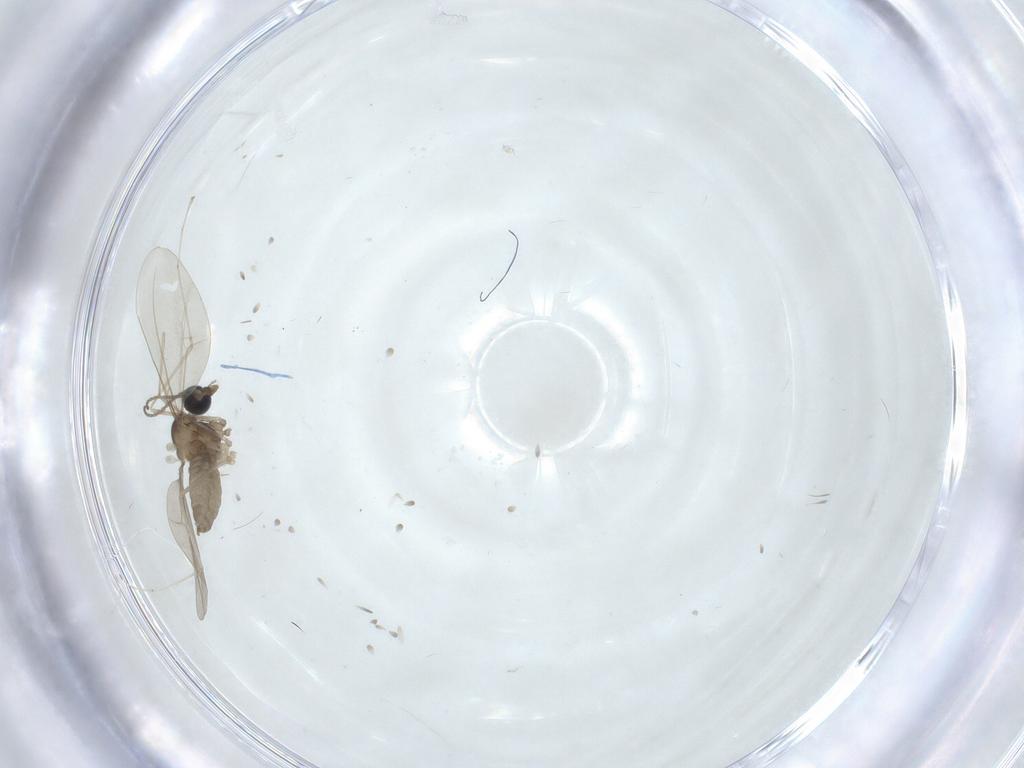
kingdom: Animalia
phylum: Arthropoda
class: Insecta
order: Diptera
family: Cecidomyiidae
